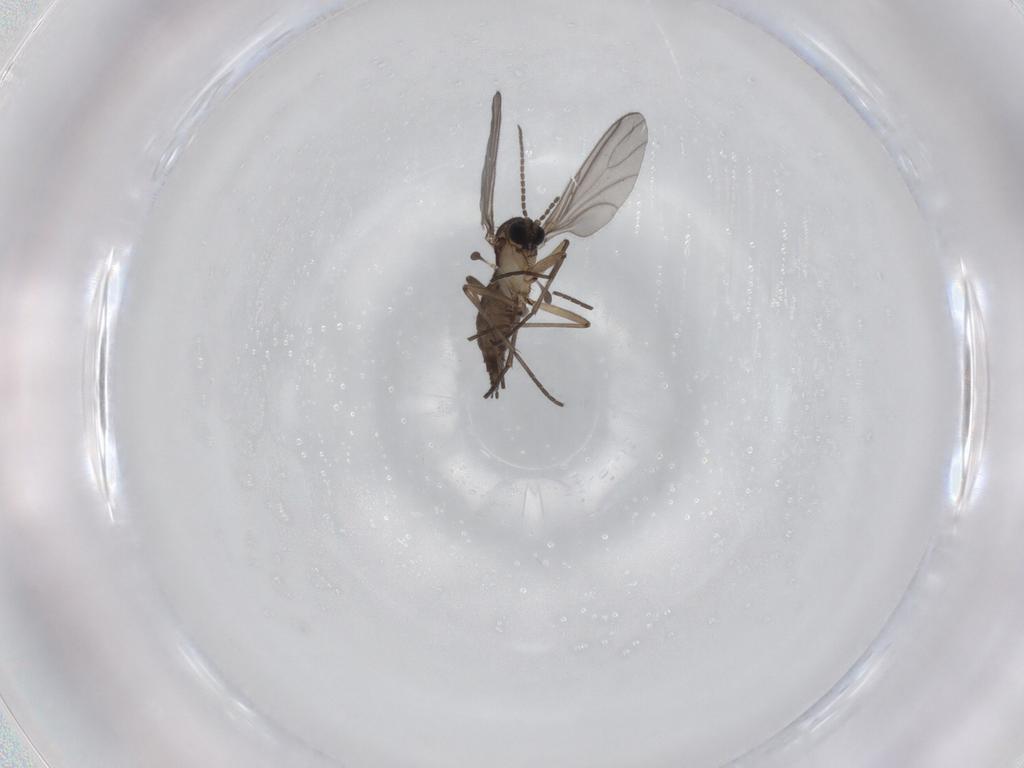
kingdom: Animalia
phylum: Arthropoda
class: Insecta
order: Diptera
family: Sciaridae
